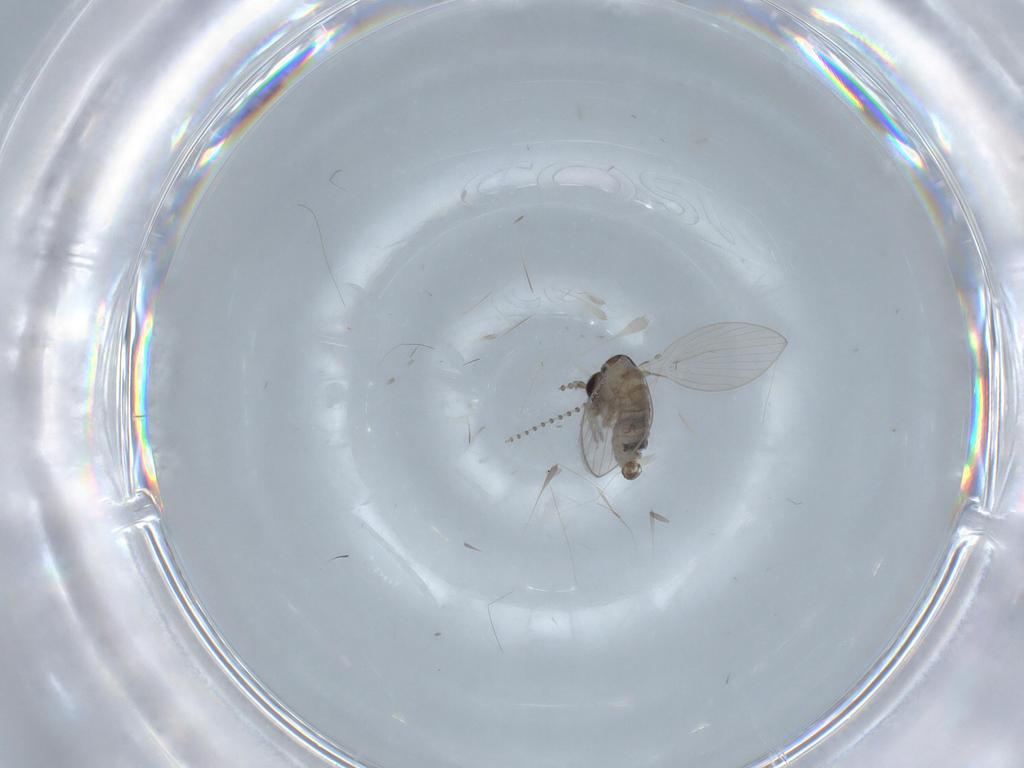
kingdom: Animalia
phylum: Arthropoda
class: Insecta
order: Diptera
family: Psychodidae
